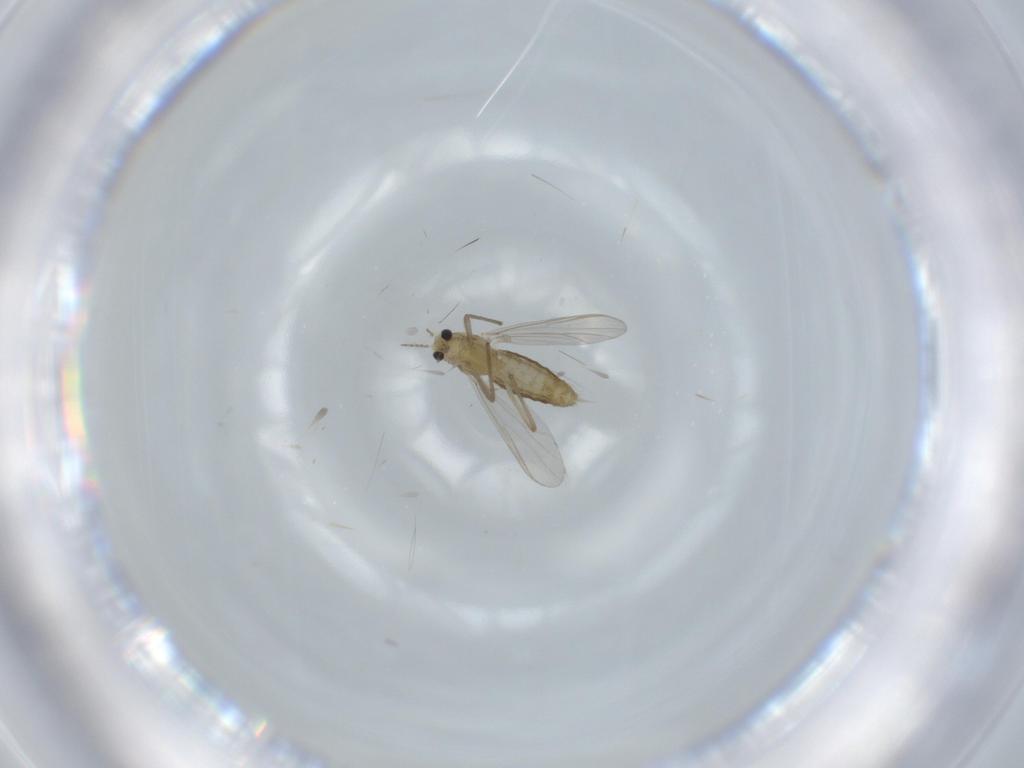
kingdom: Animalia
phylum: Arthropoda
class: Insecta
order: Diptera
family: Chironomidae
